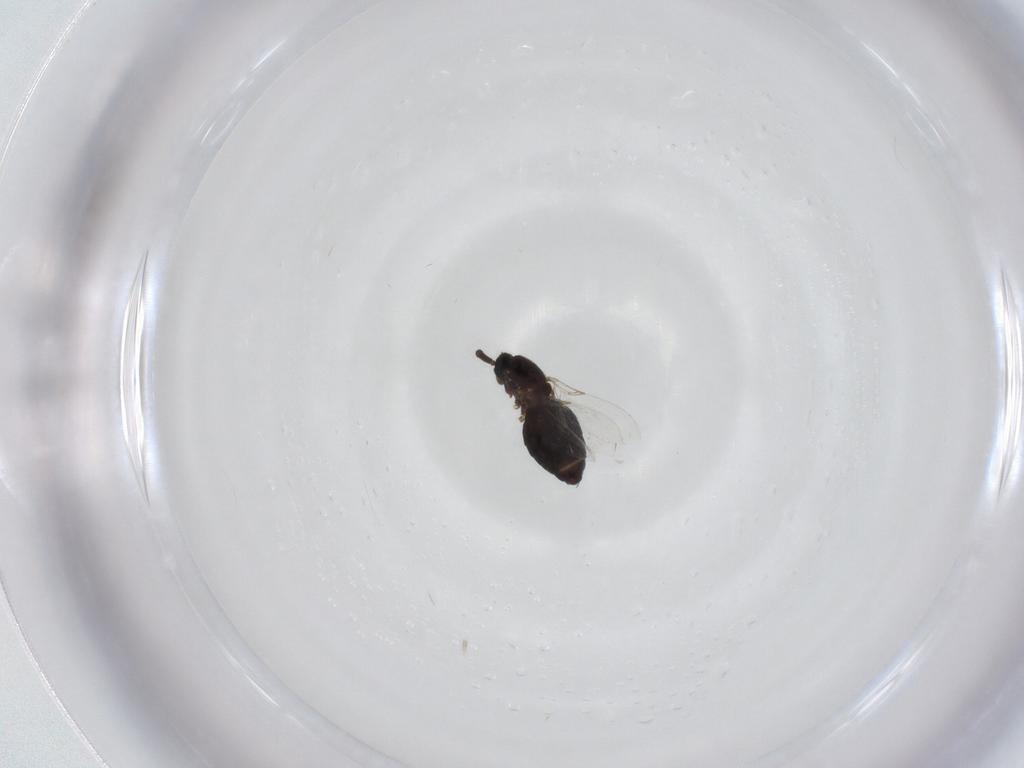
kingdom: Animalia
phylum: Arthropoda
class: Insecta
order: Diptera
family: Scatopsidae
